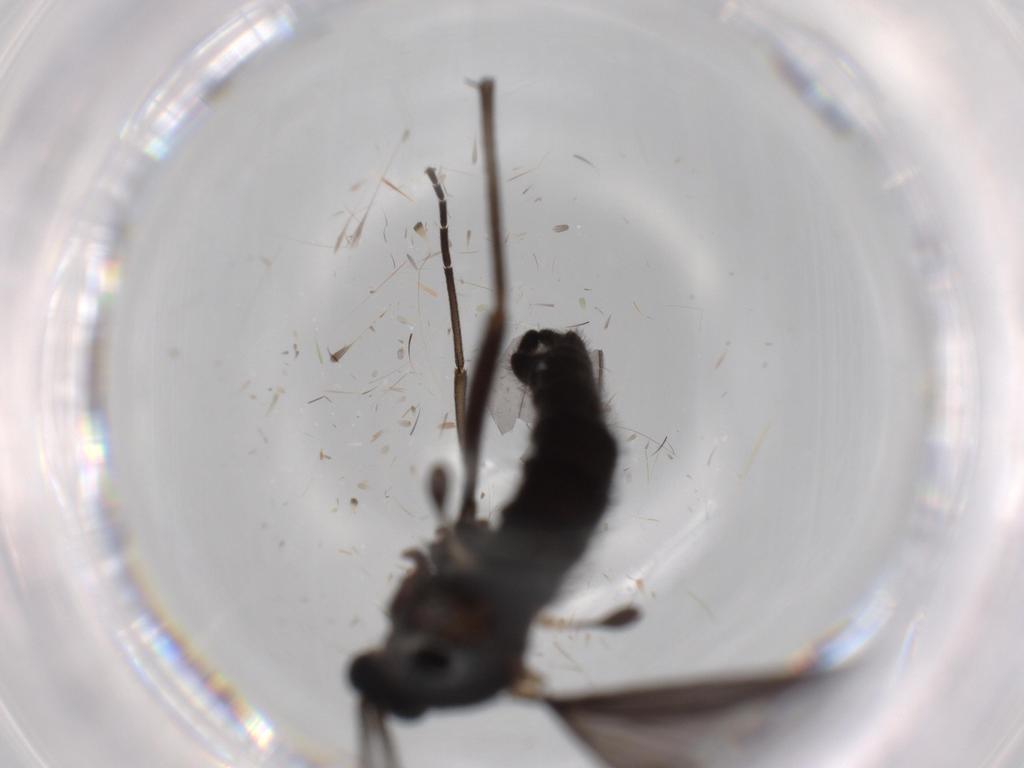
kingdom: Animalia
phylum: Arthropoda
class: Insecta
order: Diptera
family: Sciaridae
